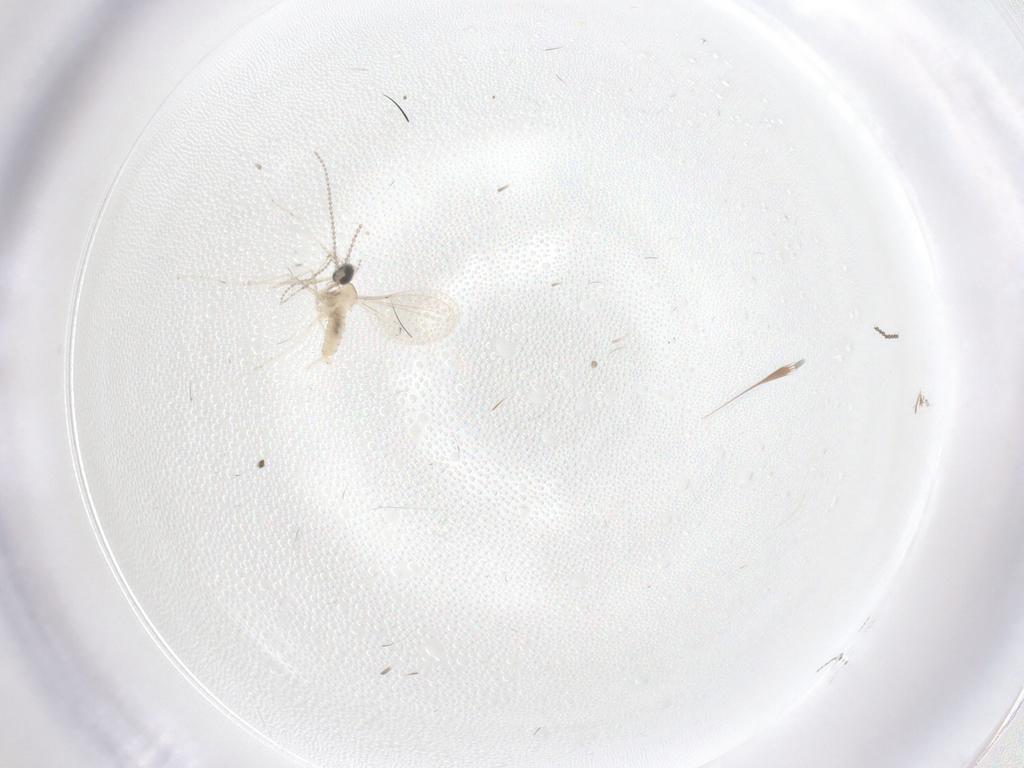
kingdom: Animalia
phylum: Arthropoda
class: Insecta
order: Diptera
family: Cecidomyiidae
